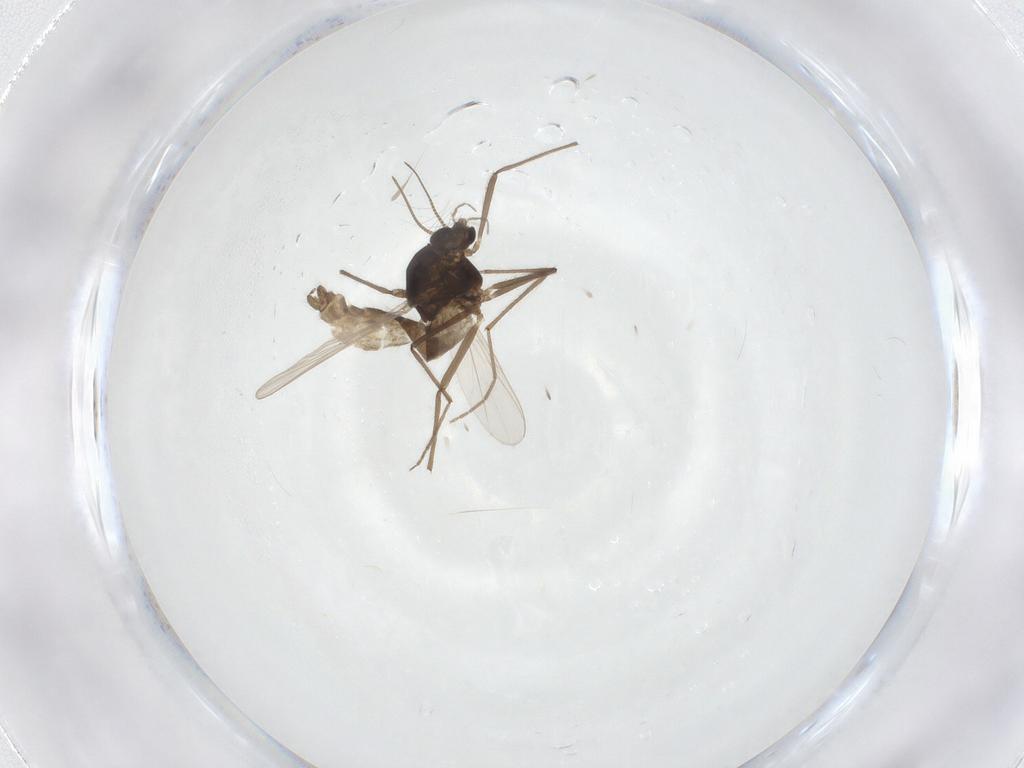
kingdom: Animalia
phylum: Arthropoda
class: Insecta
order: Diptera
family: Chironomidae
